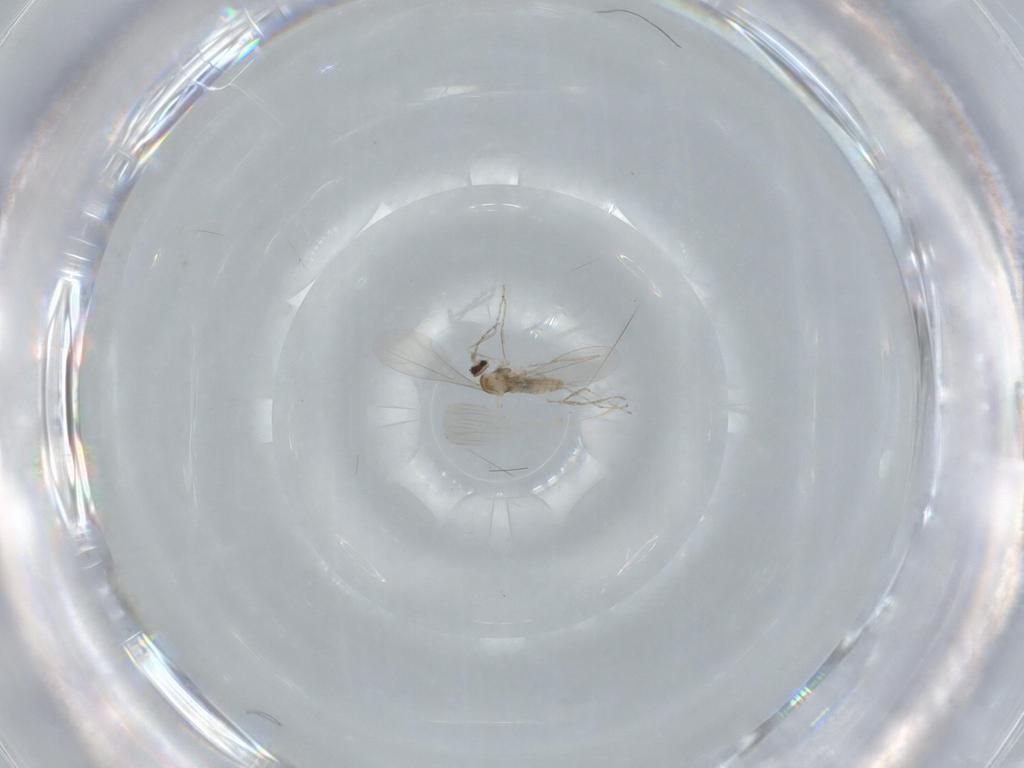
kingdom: Animalia
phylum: Arthropoda
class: Insecta
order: Diptera
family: Cecidomyiidae
